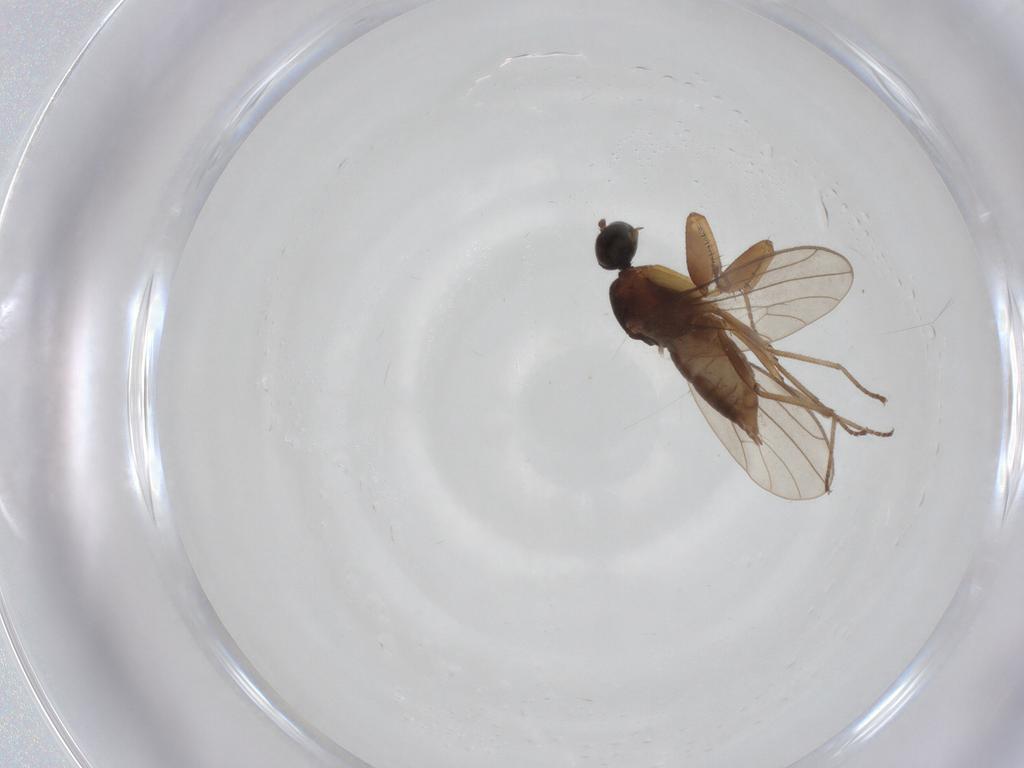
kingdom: Animalia
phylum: Arthropoda
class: Insecta
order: Diptera
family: Empididae
